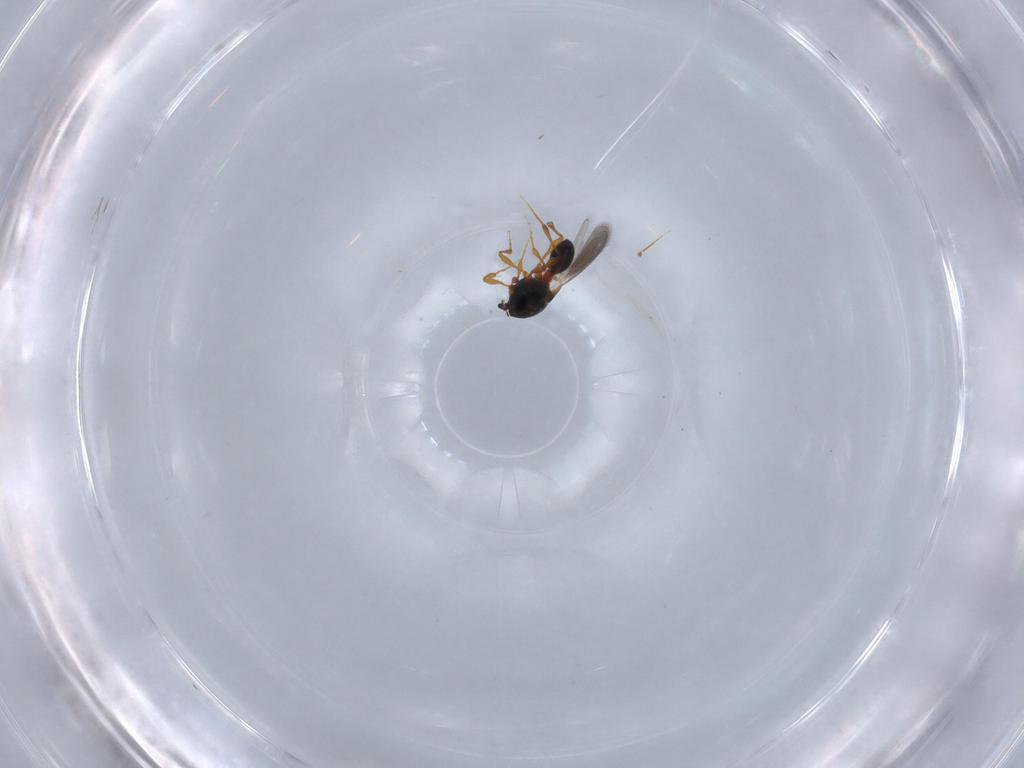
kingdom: Animalia
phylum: Arthropoda
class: Insecta
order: Hymenoptera
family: Platygastridae
